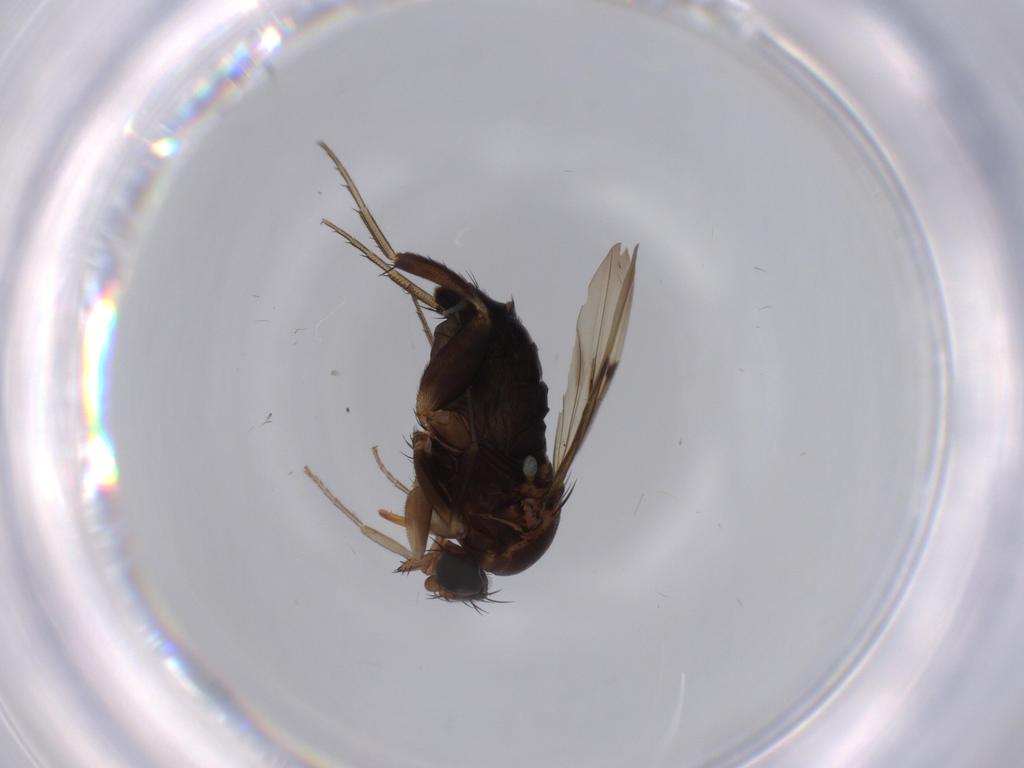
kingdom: Animalia
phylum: Arthropoda
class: Insecta
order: Diptera
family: Phoridae
